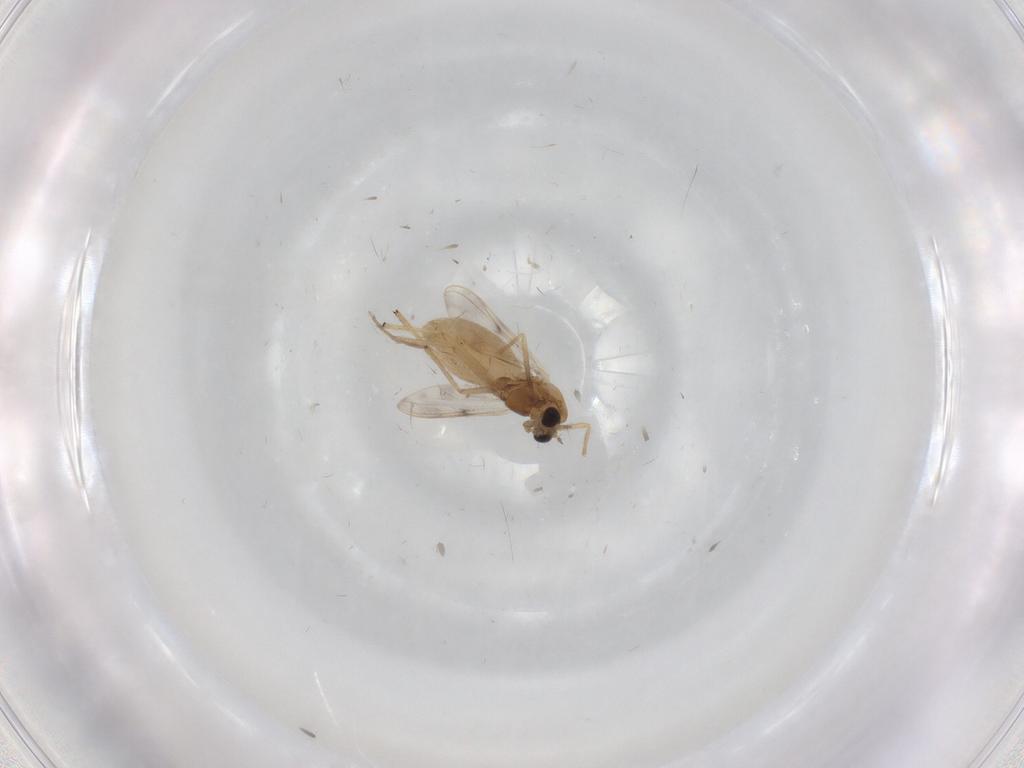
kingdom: Animalia
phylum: Arthropoda
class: Insecta
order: Diptera
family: Chironomidae
